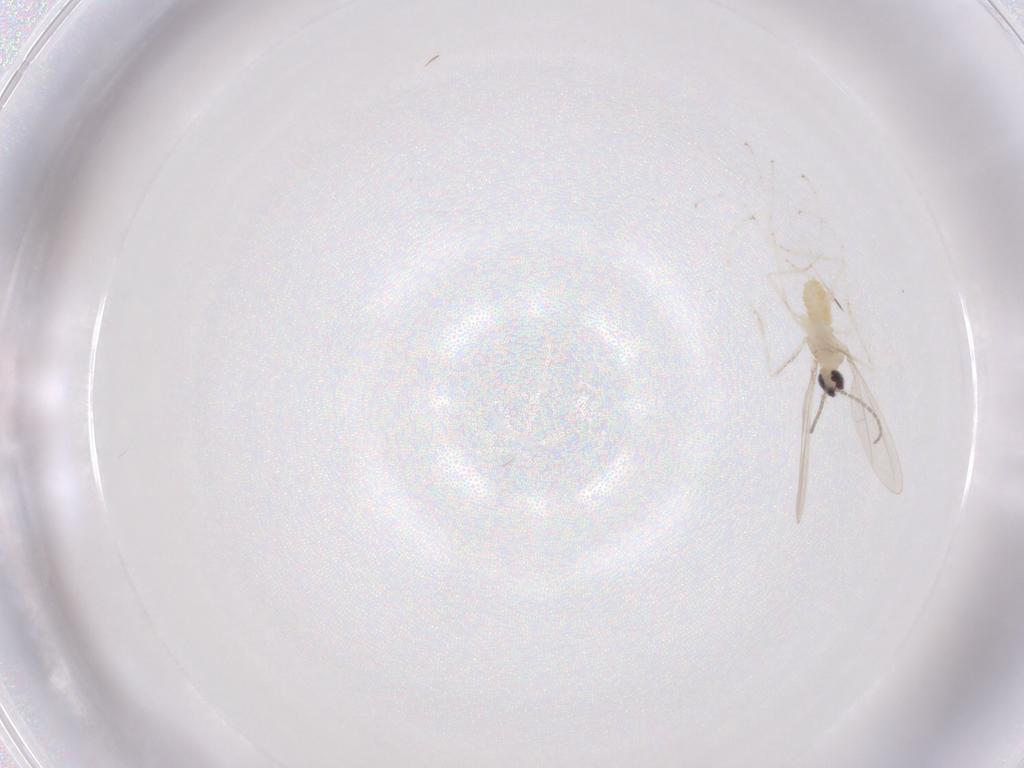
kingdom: Animalia
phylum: Arthropoda
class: Insecta
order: Diptera
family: Cecidomyiidae
